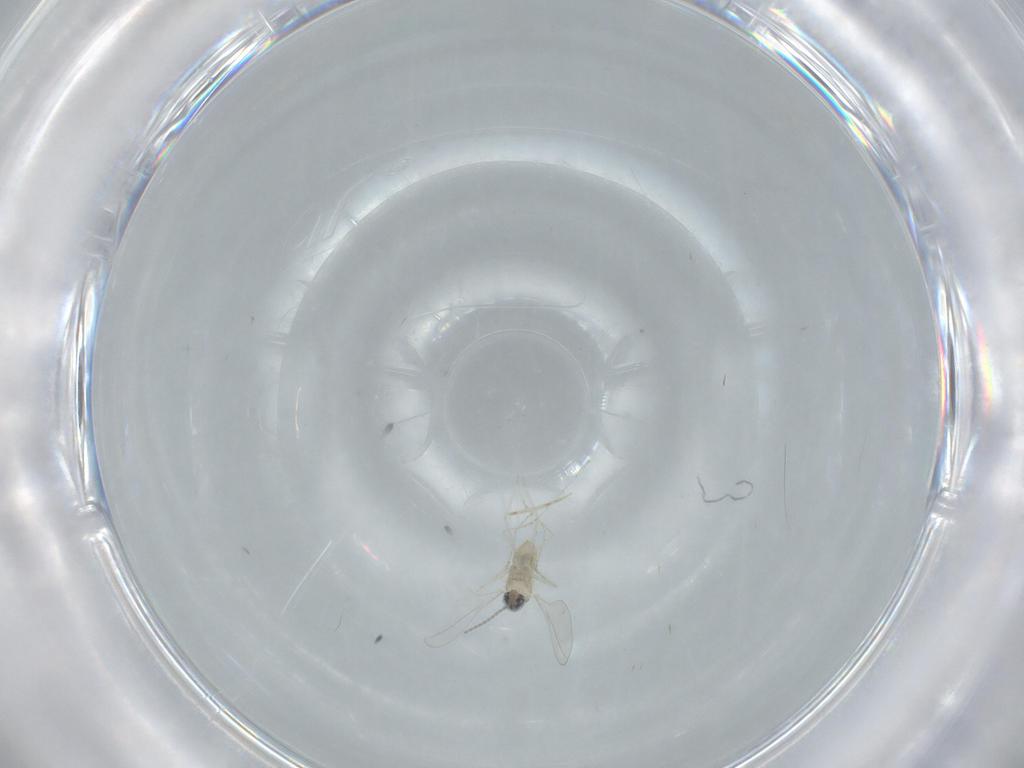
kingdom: Animalia
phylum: Arthropoda
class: Insecta
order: Diptera
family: Cecidomyiidae
